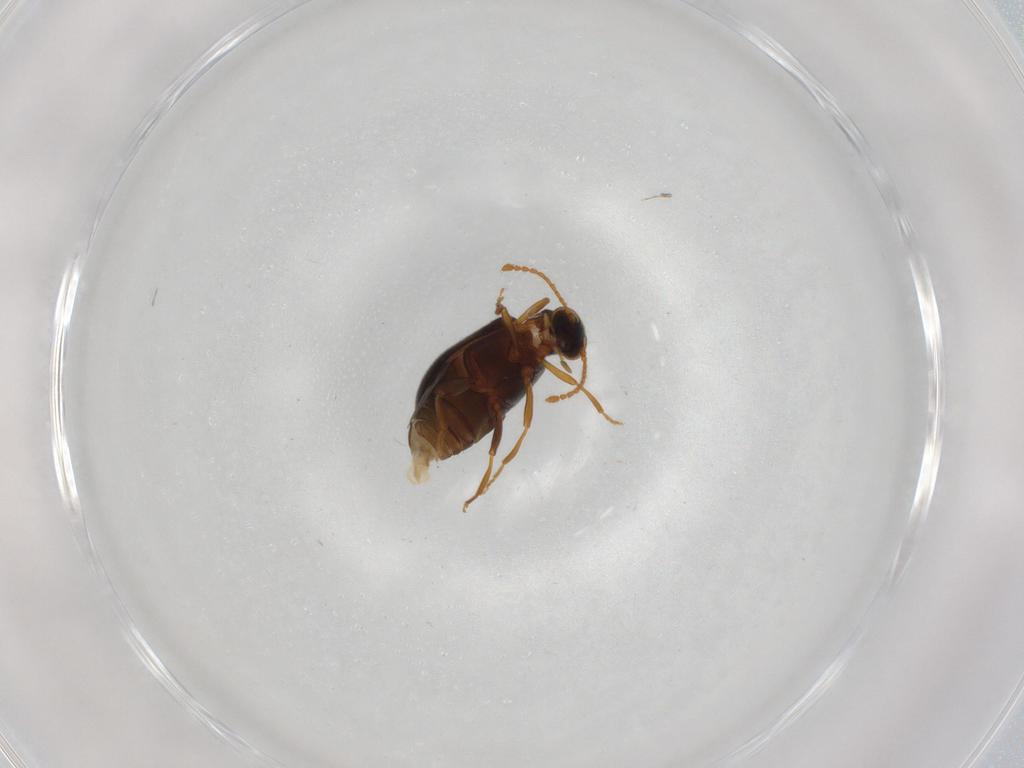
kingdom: Animalia
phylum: Arthropoda
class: Insecta
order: Coleoptera
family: Aderidae
